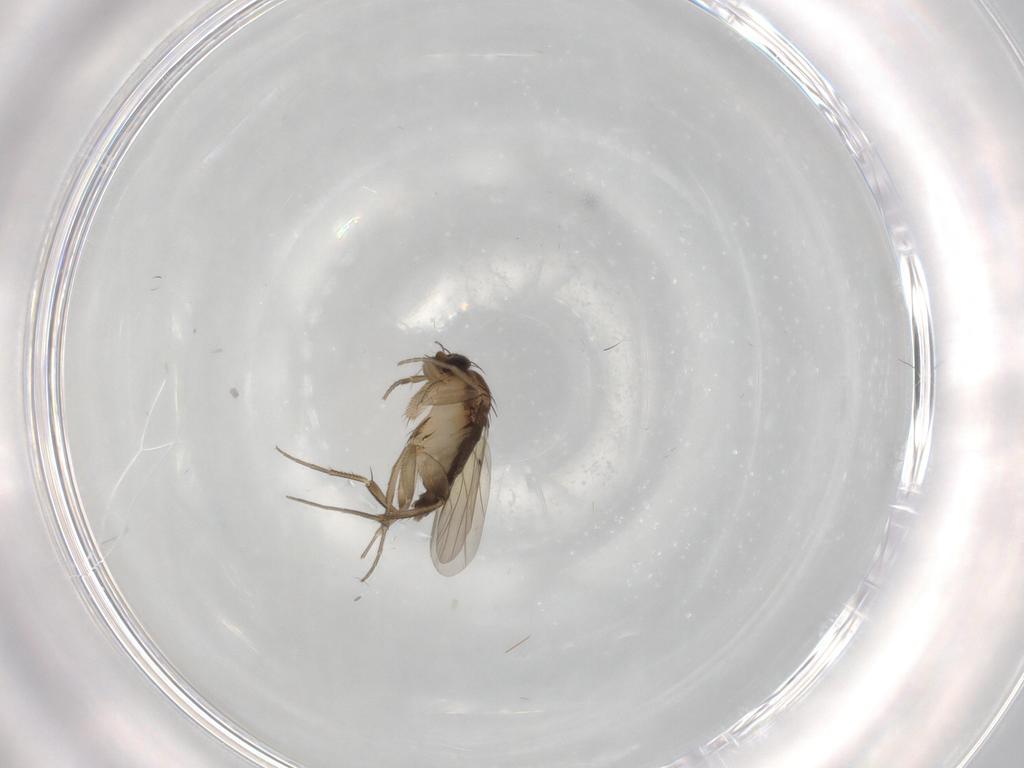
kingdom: Animalia
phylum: Arthropoda
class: Insecta
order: Diptera
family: Phoridae
